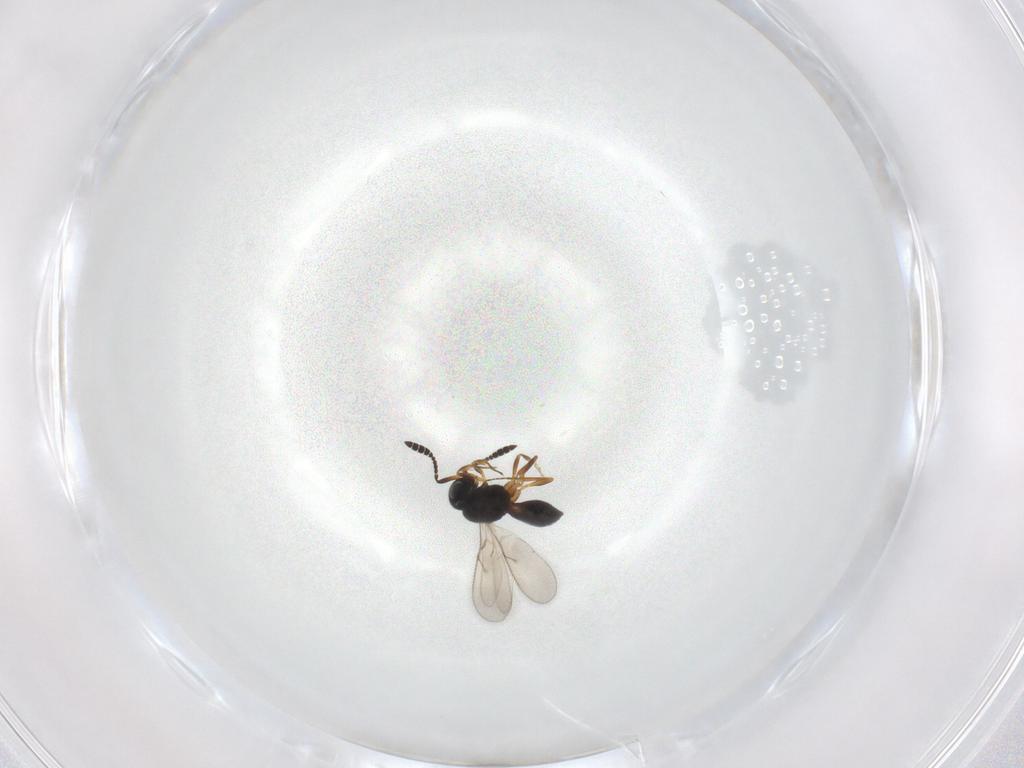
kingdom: Animalia
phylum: Arthropoda
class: Insecta
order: Hymenoptera
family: Scelionidae
